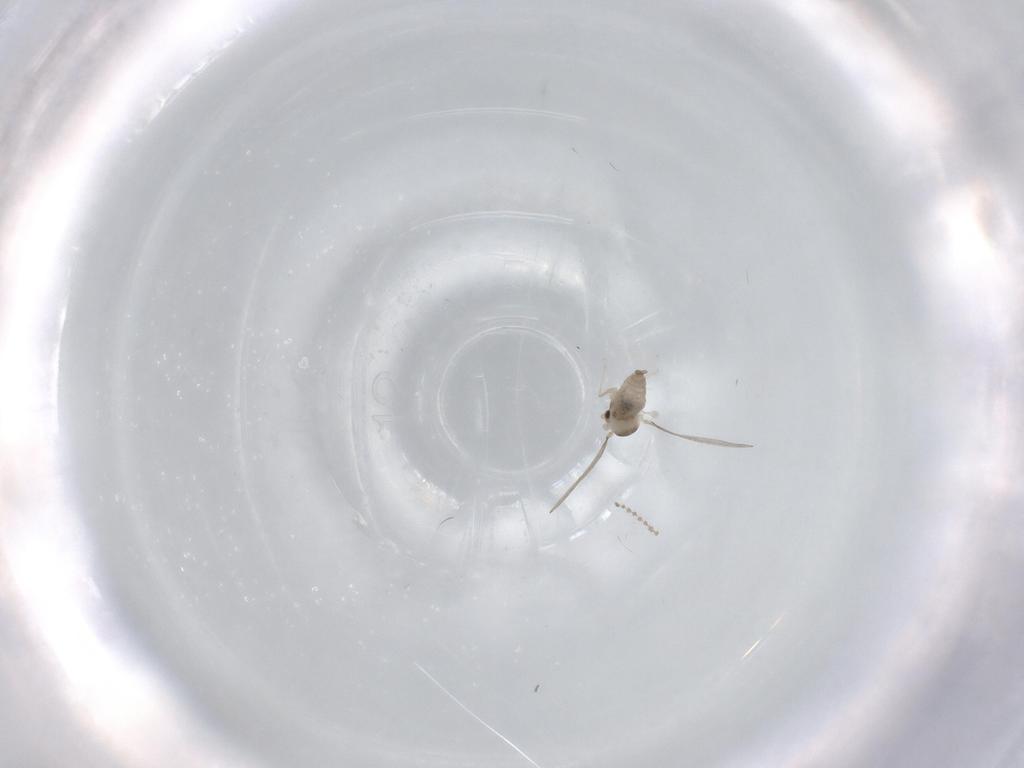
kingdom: Animalia
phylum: Arthropoda
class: Insecta
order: Diptera
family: Cecidomyiidae
